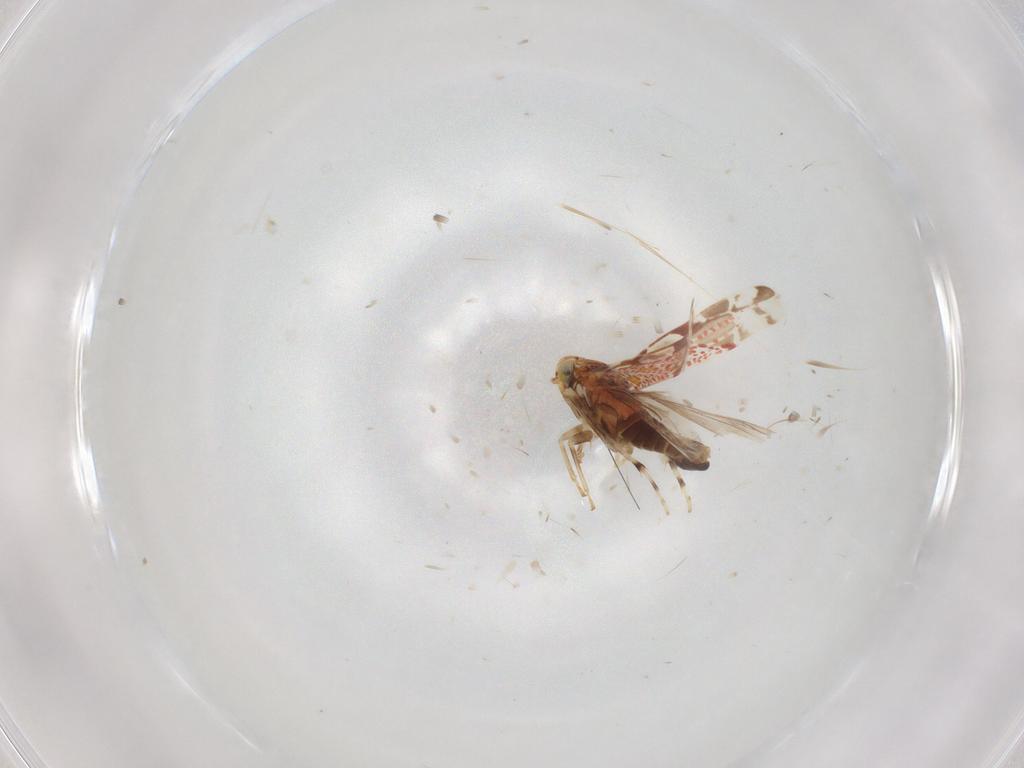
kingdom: Animalia
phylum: Arthropoda
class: Insecta
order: Hemiptera
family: Cicadellidae
